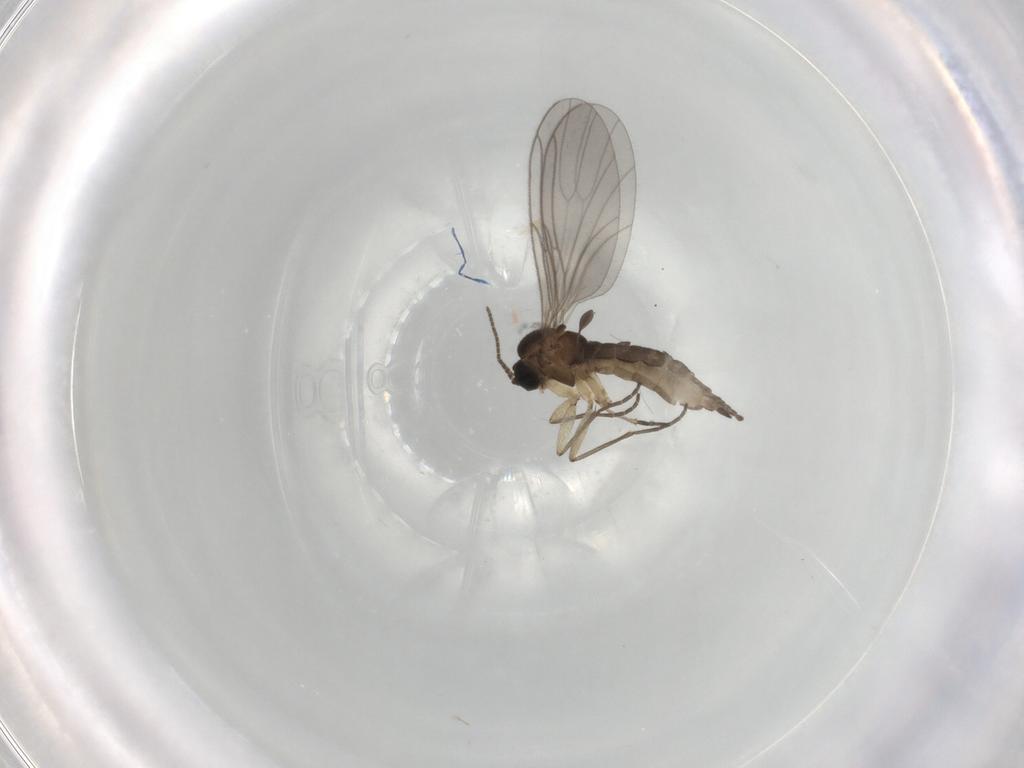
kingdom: Animalia
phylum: Arthropoda
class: Insecta
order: Diptera
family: Sciaridae
